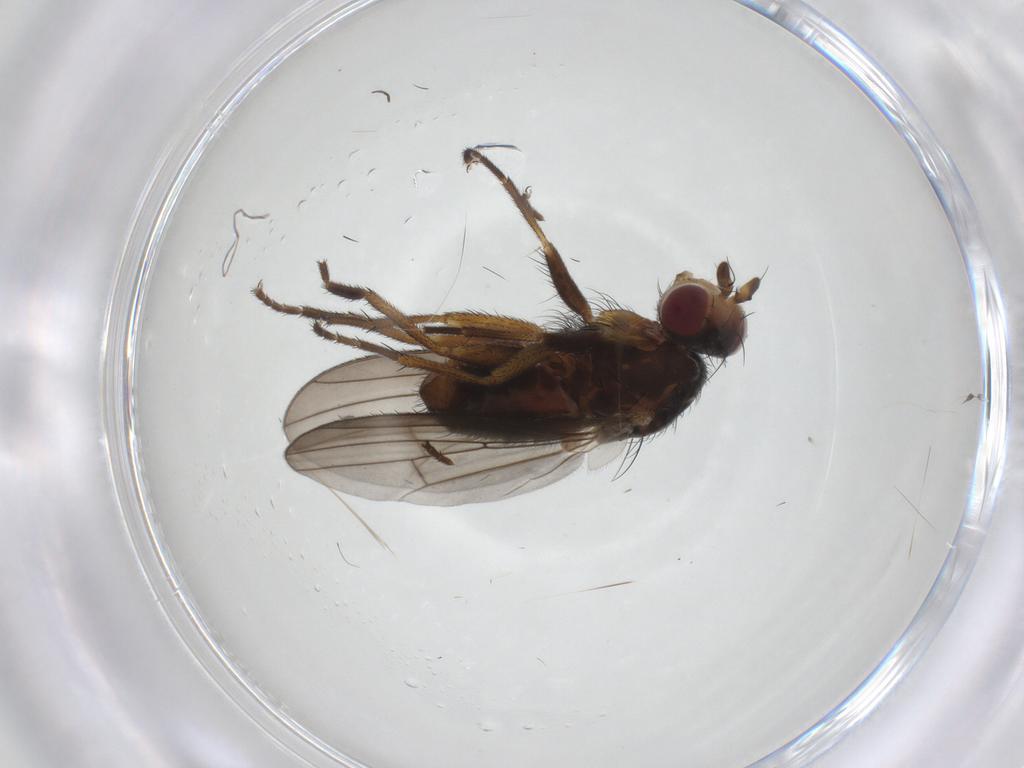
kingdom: Animalia
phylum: Arthropoda
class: Insecta
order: Diptera
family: Heleomyzidae
